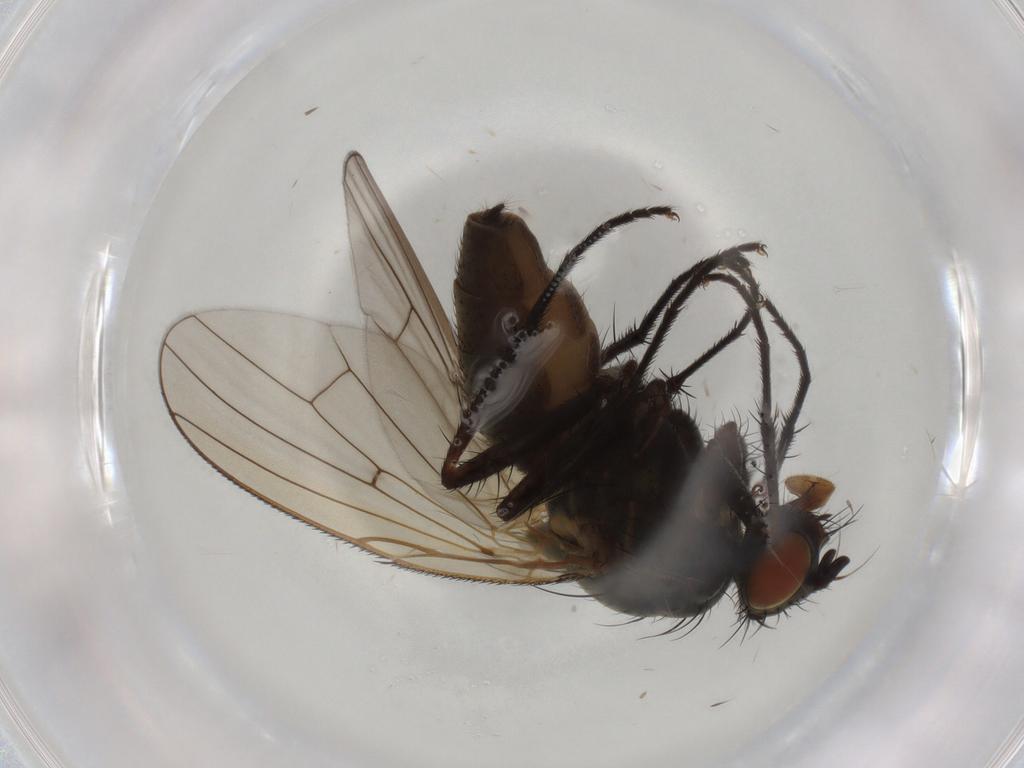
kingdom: Animalia
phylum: Arthropoda
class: Insecta
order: Diptera
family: Anthomyiidae
